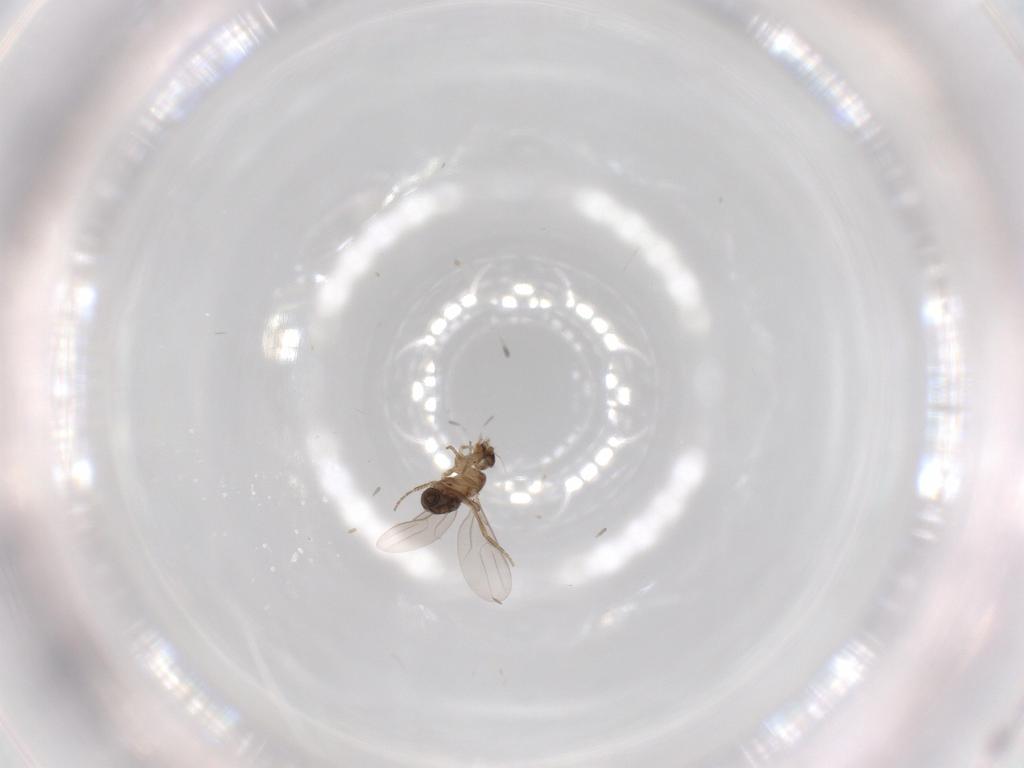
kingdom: Animalia
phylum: Arthropoda
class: Insecta
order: Diptera
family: Phoridae
